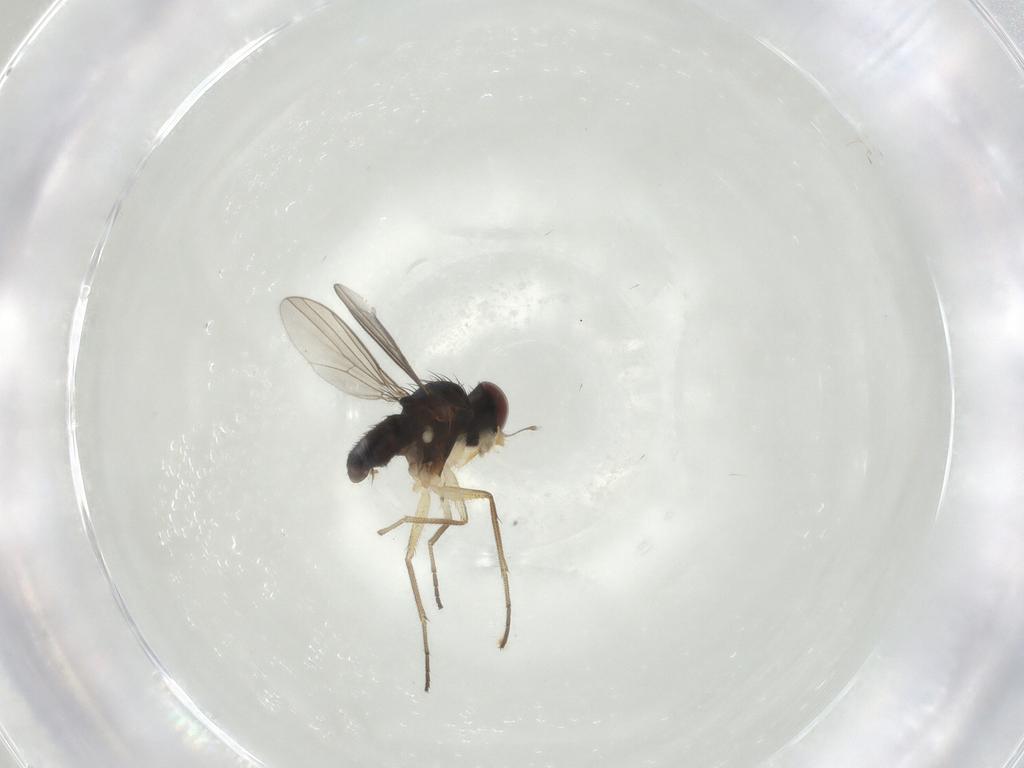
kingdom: Animalia
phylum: Arthropoda
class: Insecta
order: Diptera
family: Dolichopodidae
